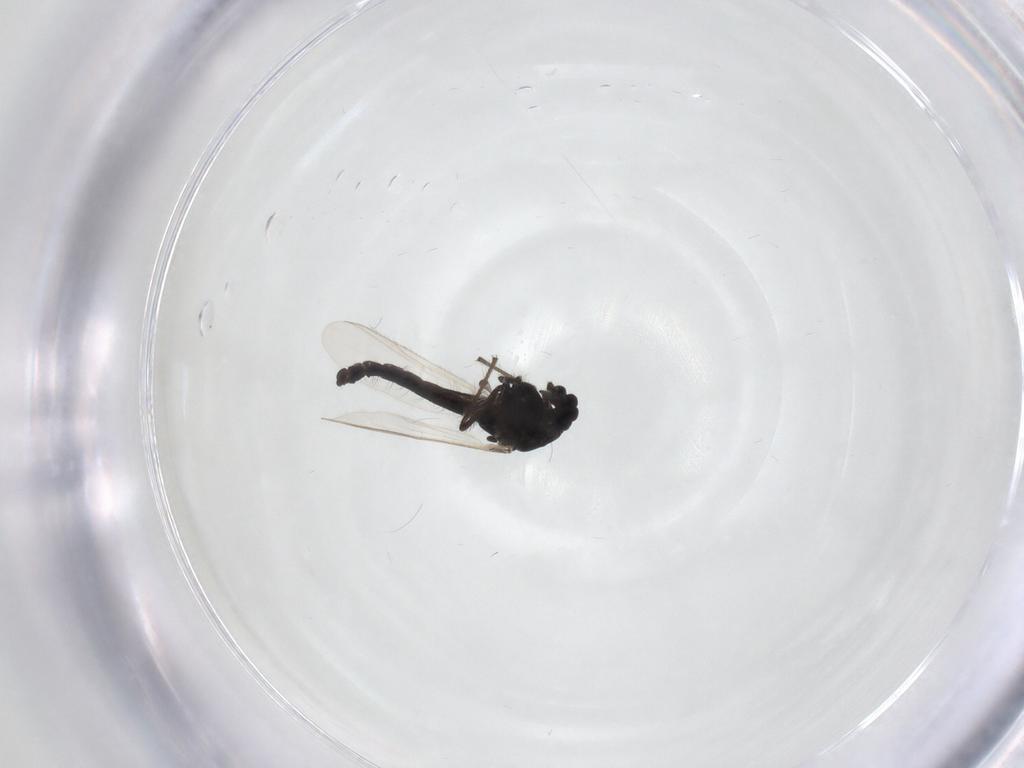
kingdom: Animalia
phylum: Arthropoda
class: Insecta
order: Diptera
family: Chironomidae
